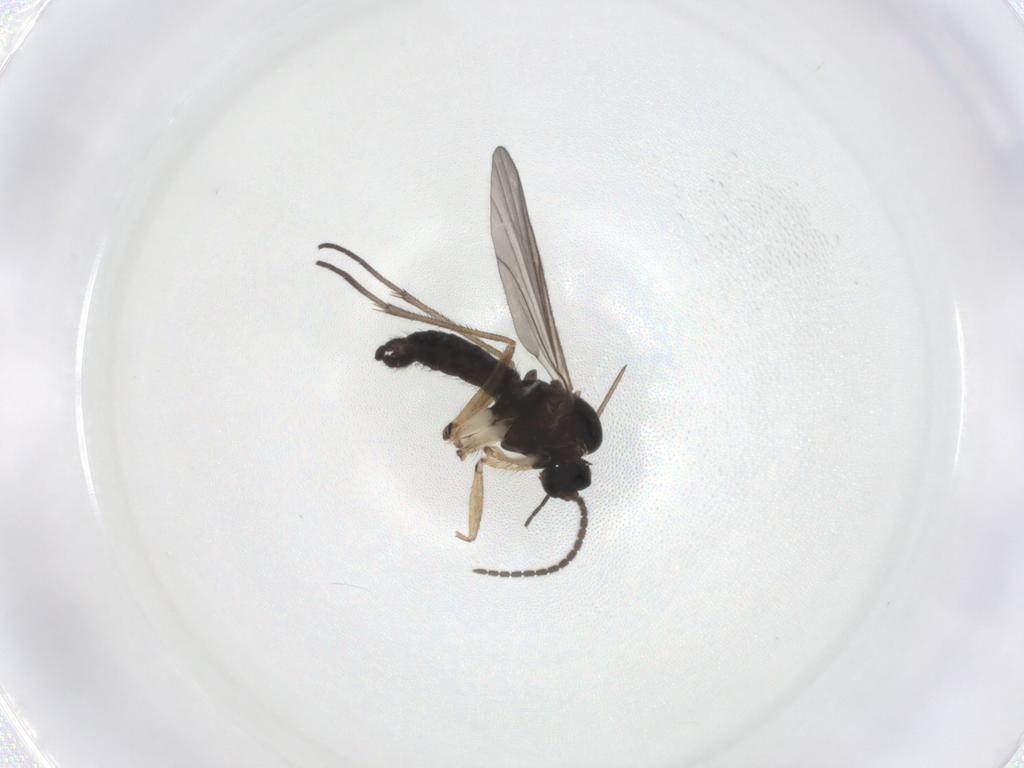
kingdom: Animalia
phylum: Arthropoda
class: Insecta
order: Diptera
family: Sciaridae
